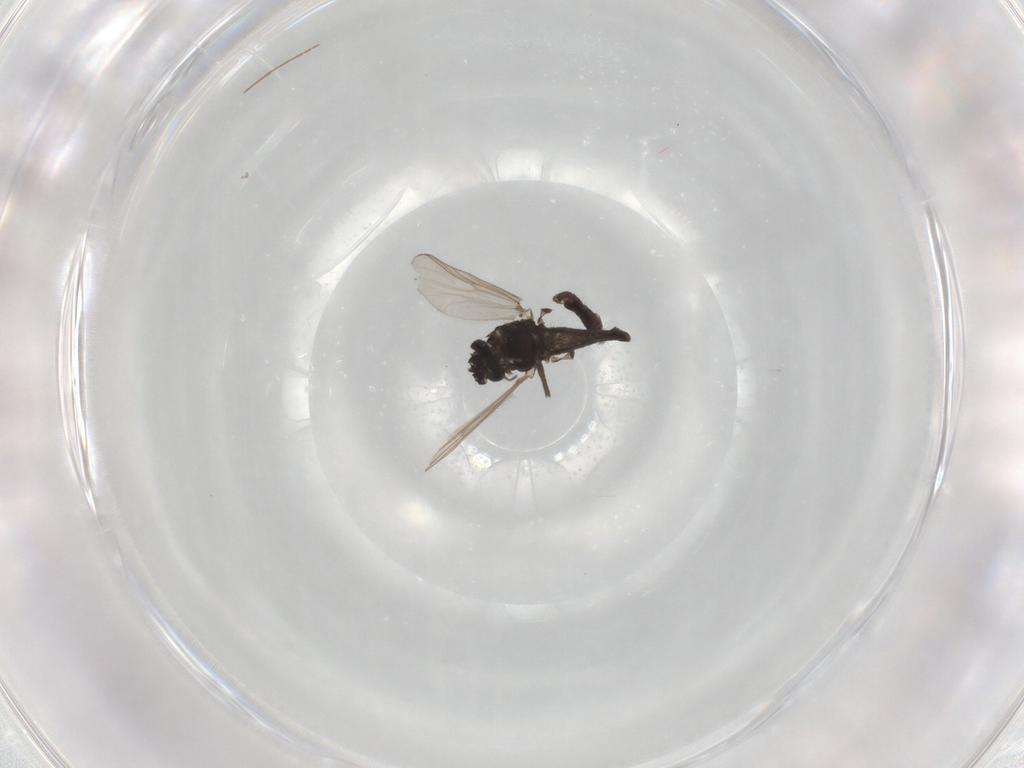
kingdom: Animalia
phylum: Arthropoda
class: Insecta
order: Diptera
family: Chironomidae
